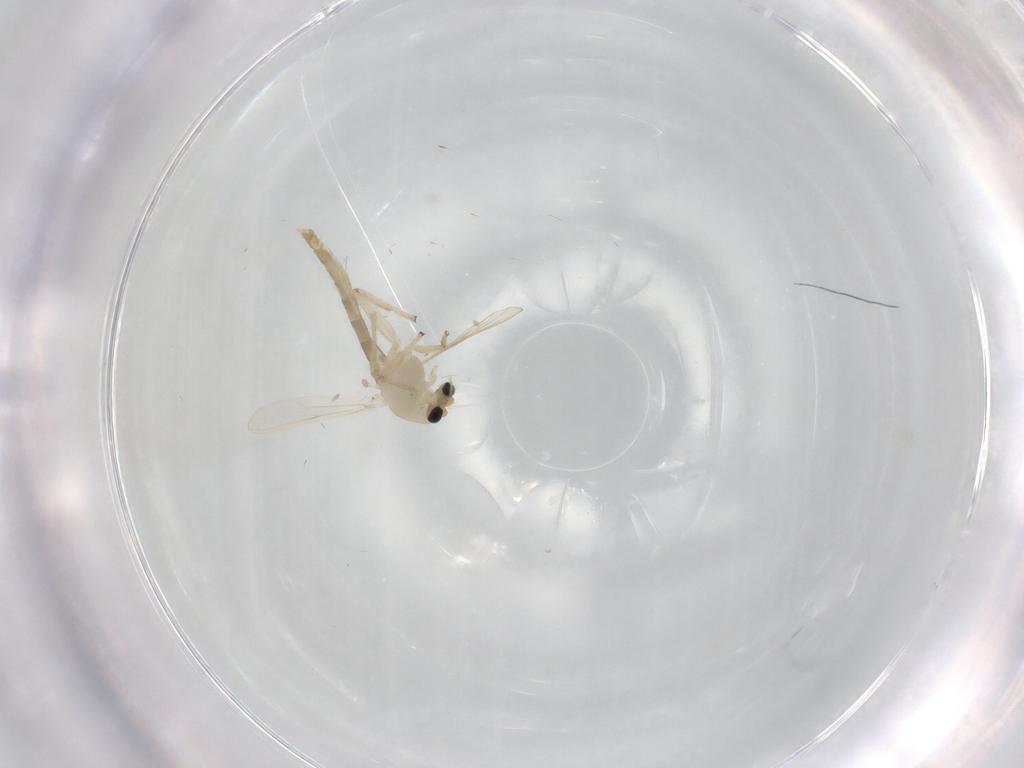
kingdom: Animalia
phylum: Arthropoda
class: Insecta
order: Diptera
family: Chironomidae
